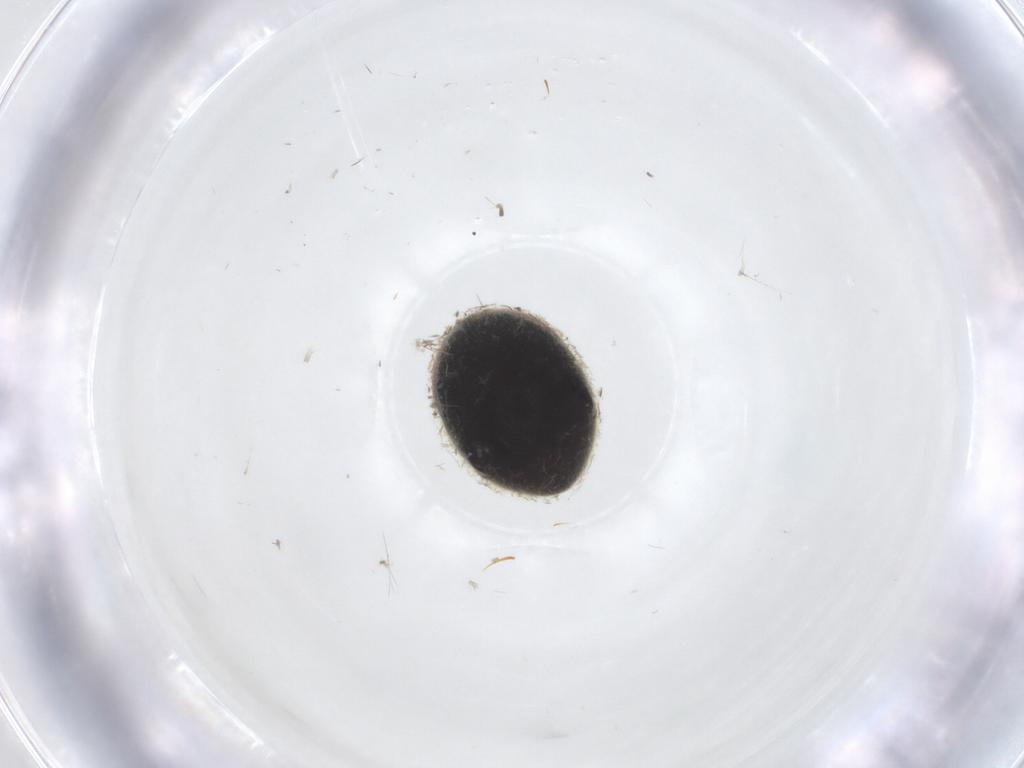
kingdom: Animalia
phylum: Arthropoda
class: Insecta
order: Coleoptera
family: Ptinidae
